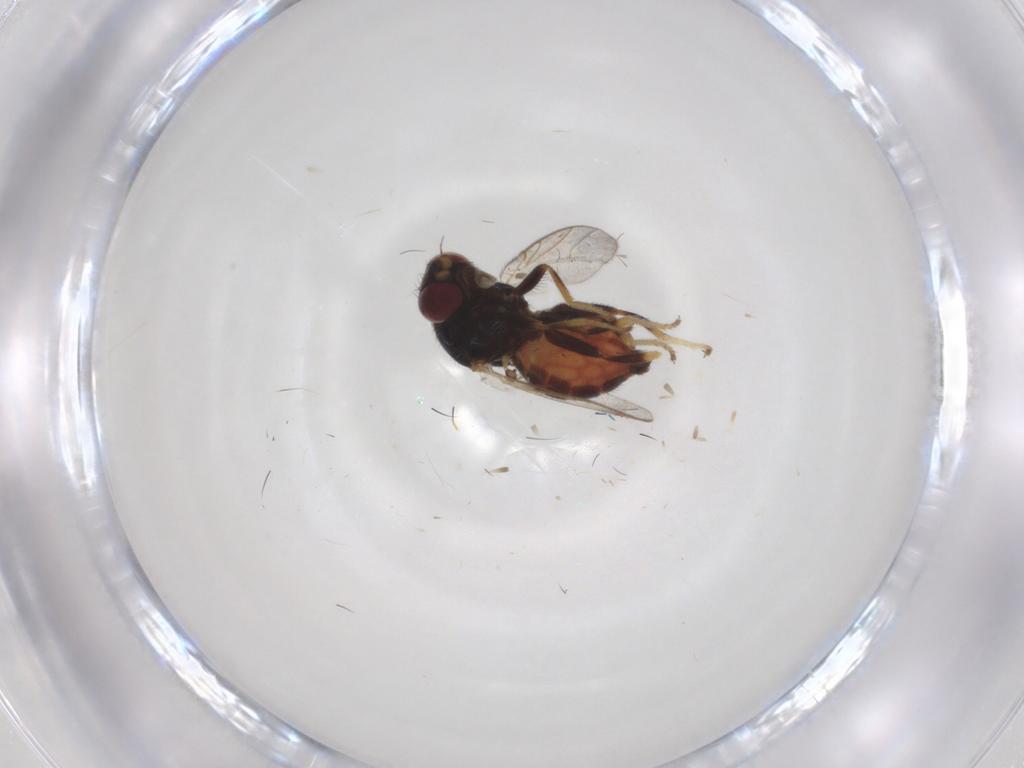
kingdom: Animalia
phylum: Arthropoda
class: Insecta
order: Diptera
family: Chloropidae
